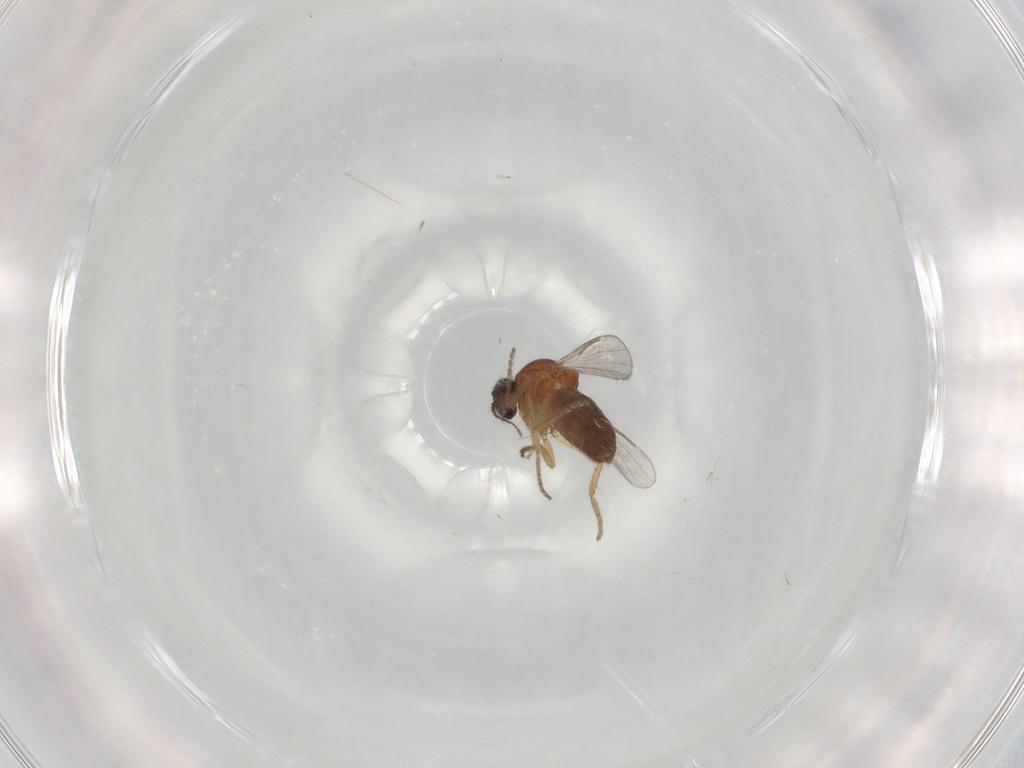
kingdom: Animalia
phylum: Arthropoda
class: Insecta
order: Diptera
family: Ceratopogonidae
